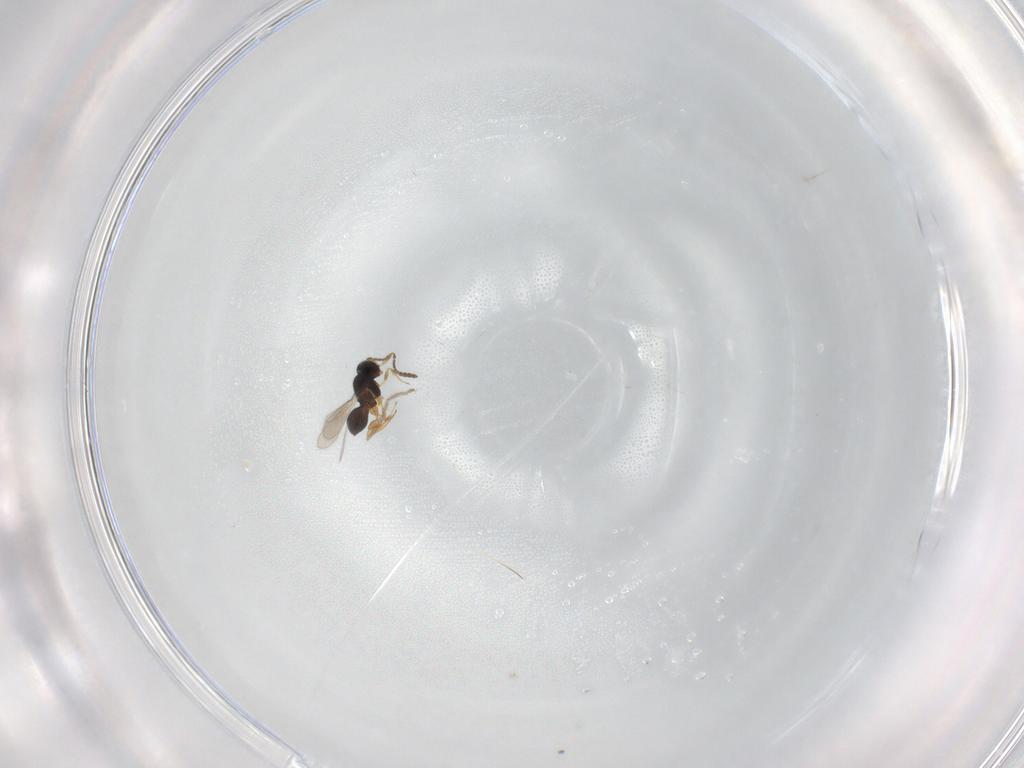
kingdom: Animalia
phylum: Arthropoda
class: Insecta
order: Hymenoptera
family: Scelionidae
